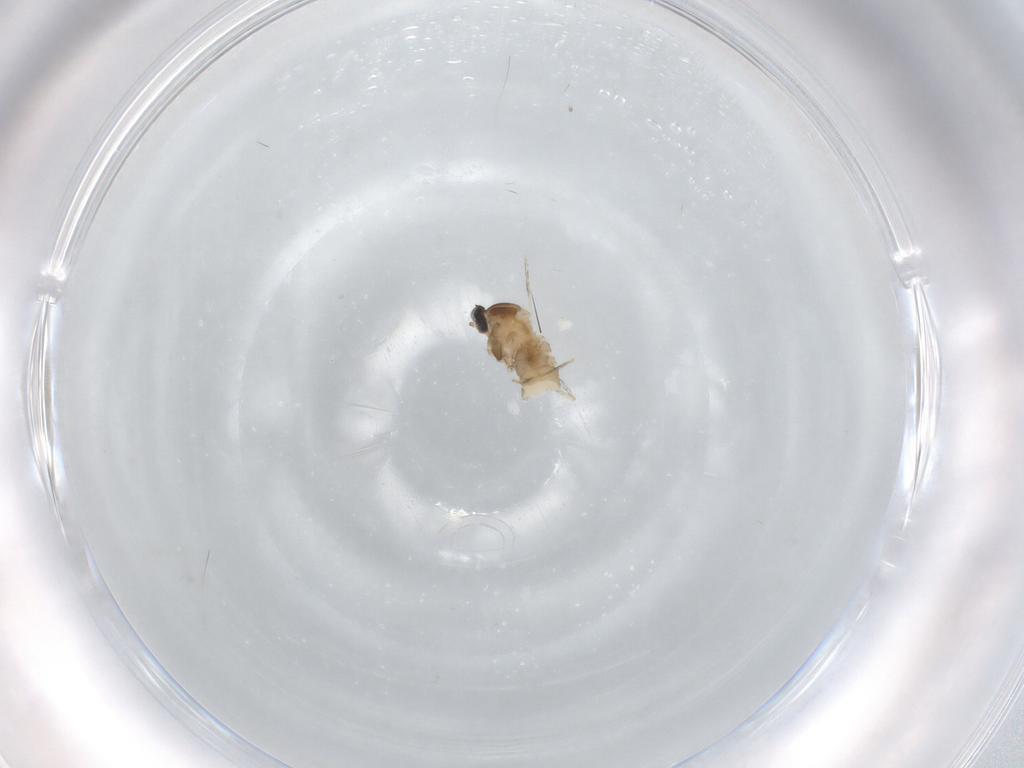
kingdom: Animalia
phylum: Arthropoda
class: Insecta
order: Diptera
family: Cecidomyiidae
